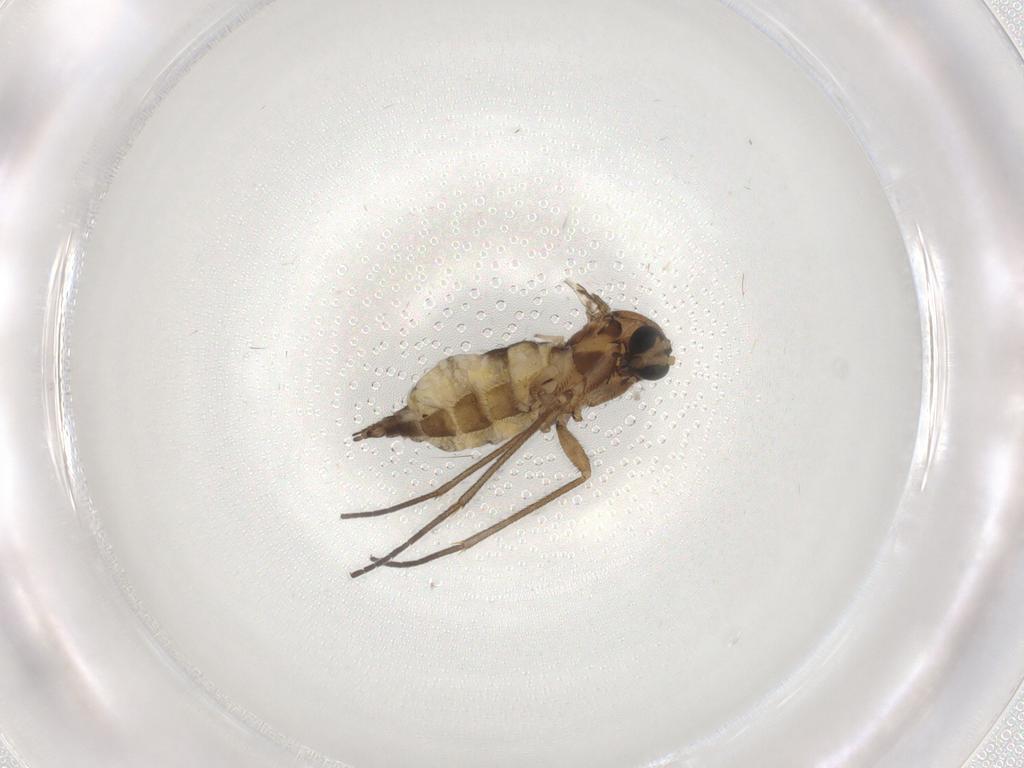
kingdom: Animalia
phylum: Arthropoda
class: Insecta
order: Diptera
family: Sciaridae
